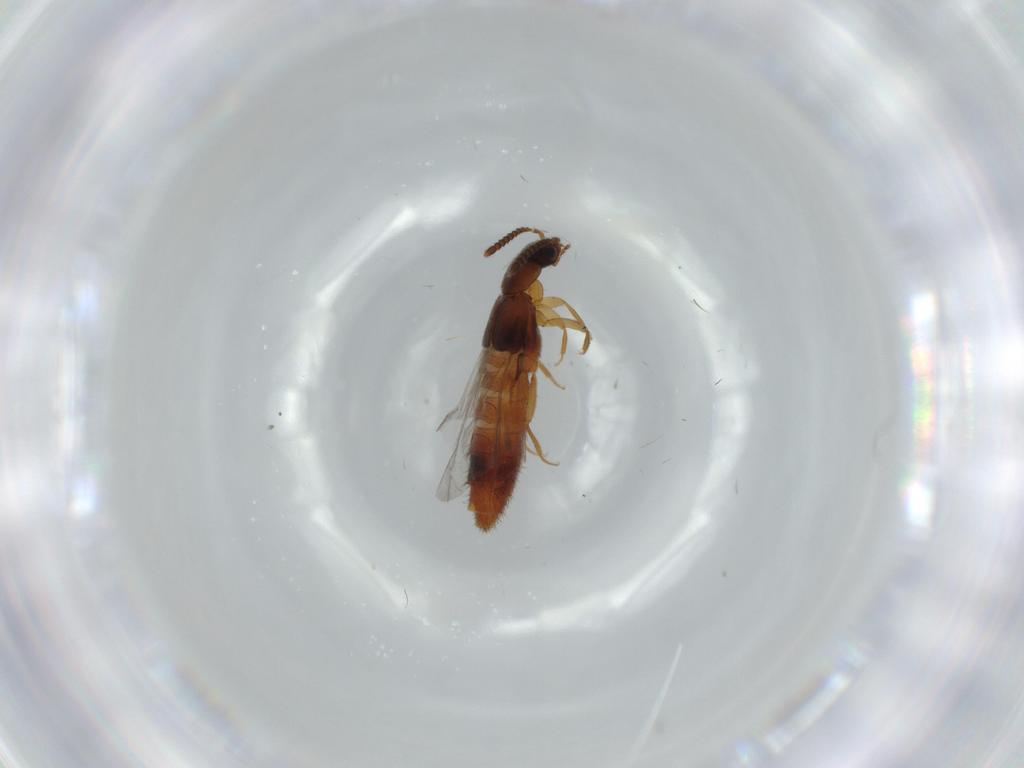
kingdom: Animalia
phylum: Arthropoda
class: Insecta
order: Coleoptera
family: Staphylinidae
